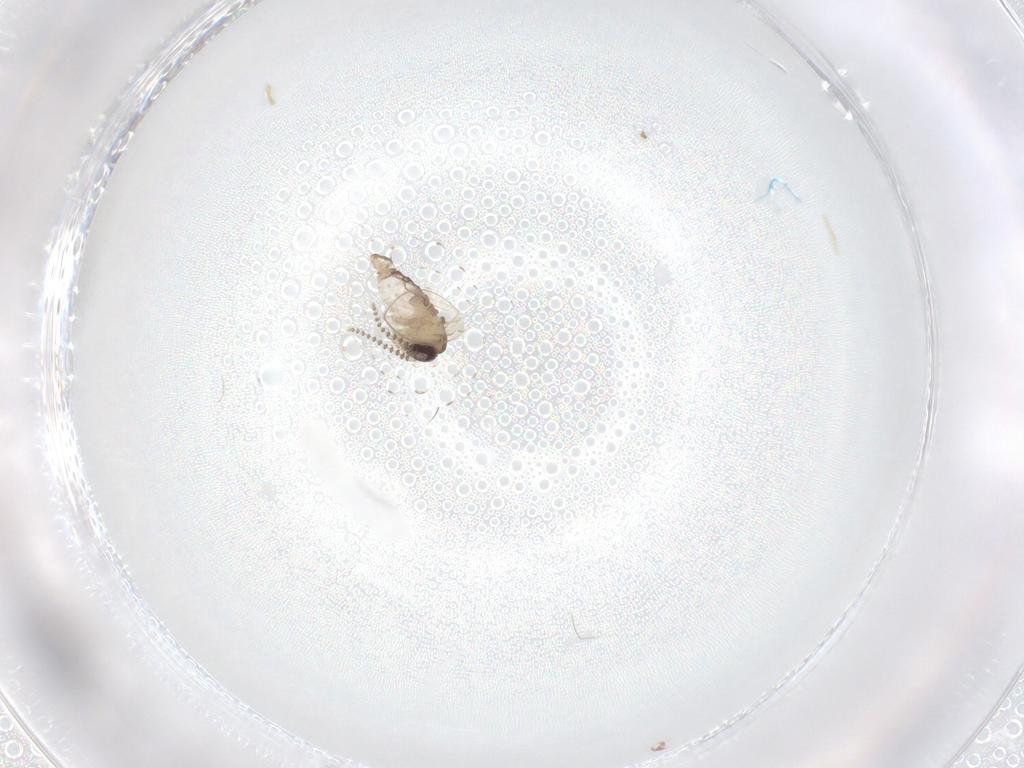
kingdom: Animalia
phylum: Arthropoda
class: Insecta
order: Diptera
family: Psychodidae
